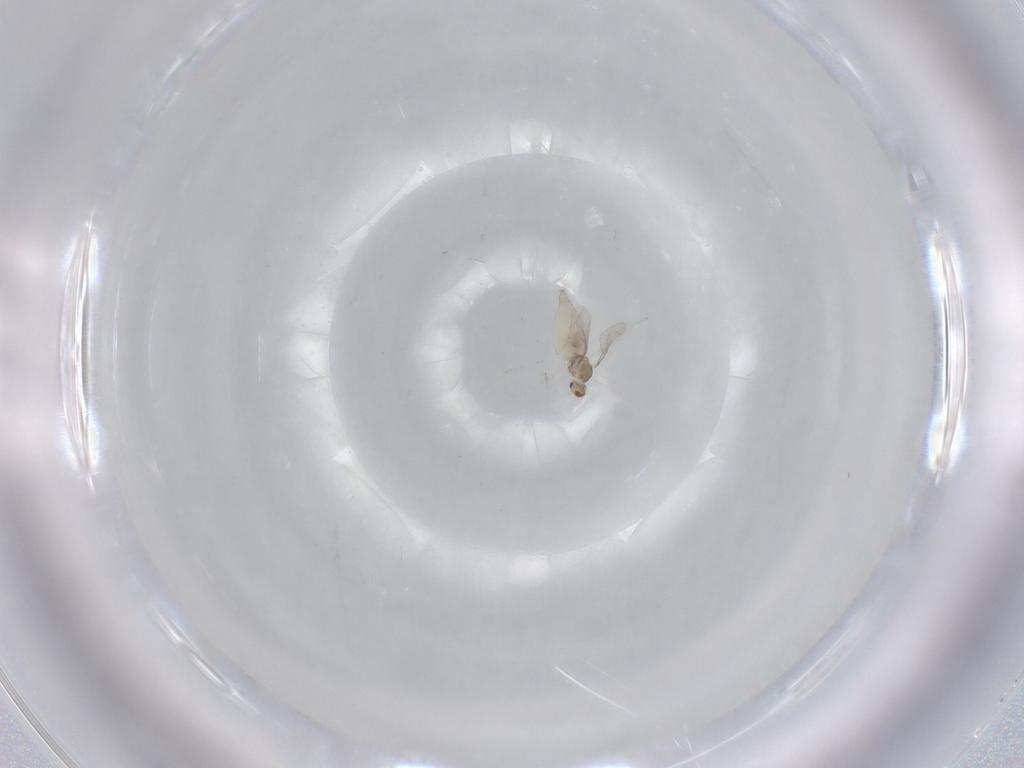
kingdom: Animalia
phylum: Arthropoda
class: Insecta
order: Diptera
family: Cecidomyiidae
